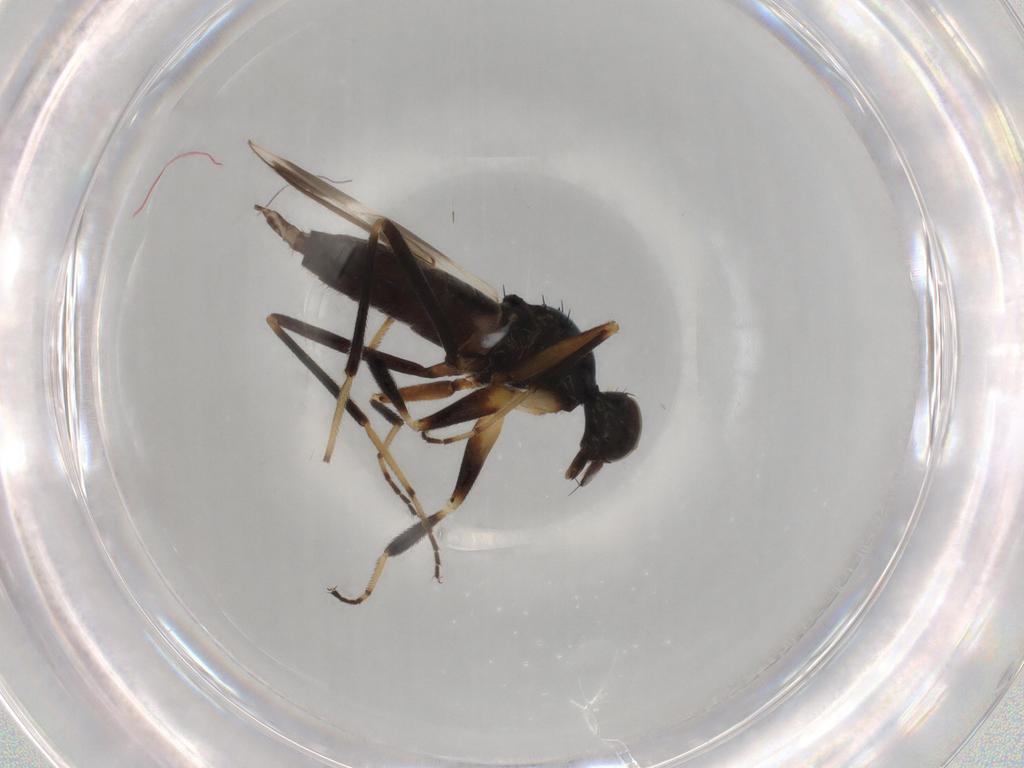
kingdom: Animalia
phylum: Arthropoda
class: Insecta
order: Diptera
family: Hybotidae
